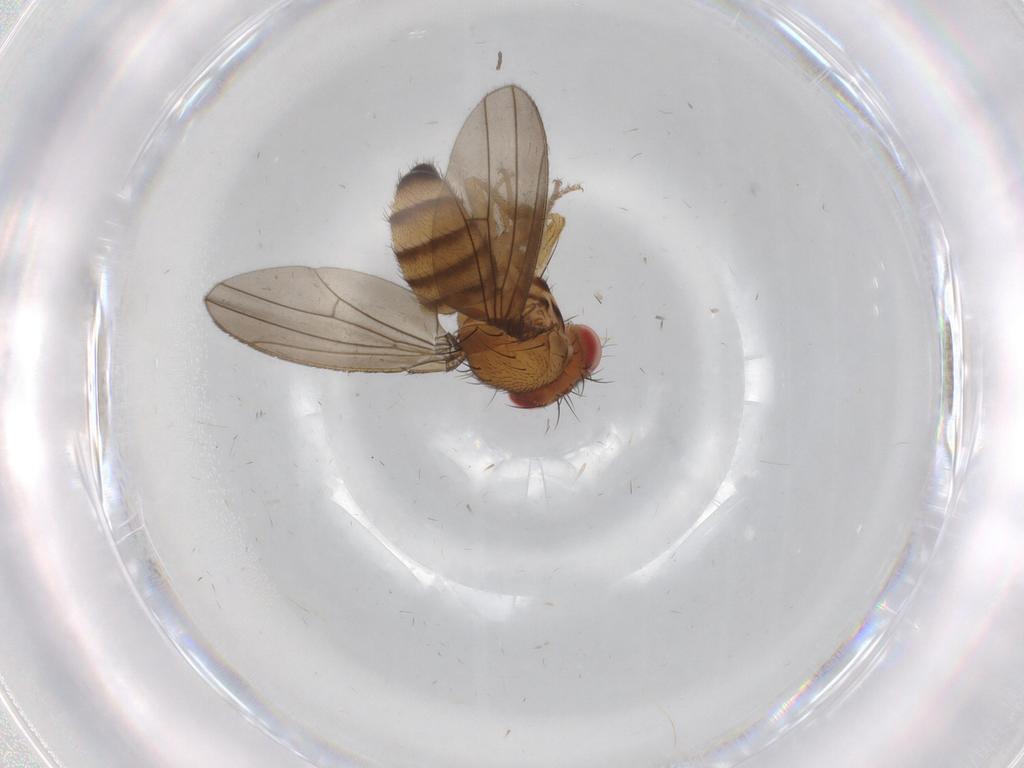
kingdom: Animalia
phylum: Arthropoda
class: Insecta
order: Diptera
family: Drosophilidae
